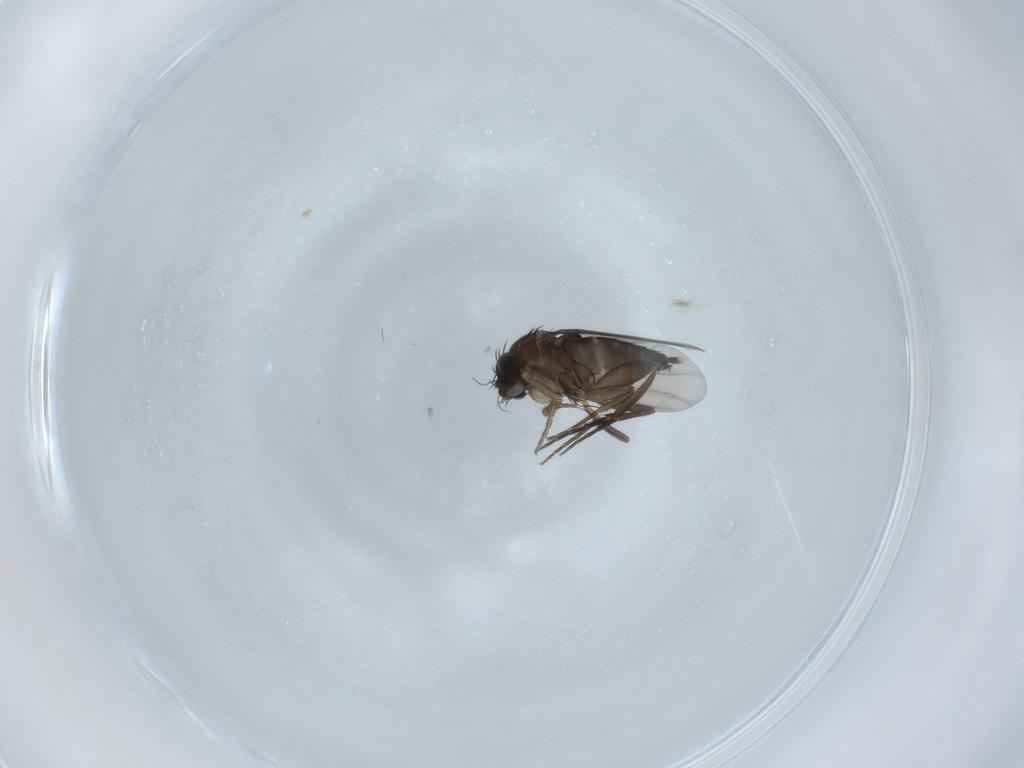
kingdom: Animalia
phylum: Arthropoda
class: Insecta
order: Diptera
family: Phoridae
